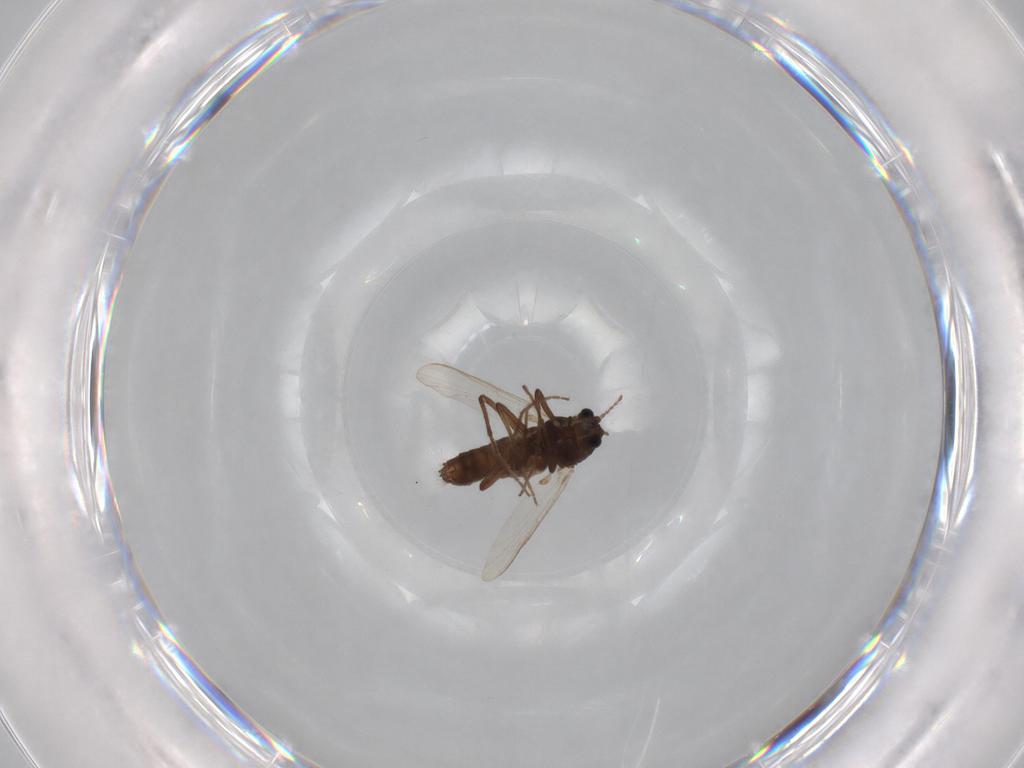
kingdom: Animalia
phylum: Arthropoda
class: Insecta
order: Diptera
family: Chironomidae
